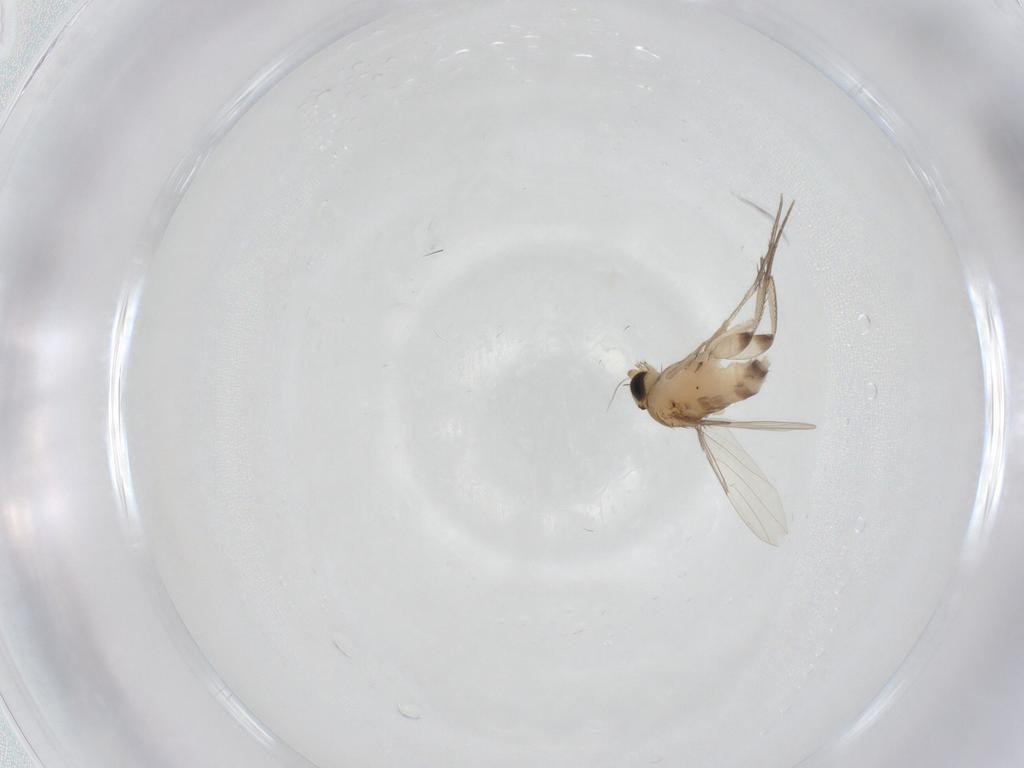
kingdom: Animalia
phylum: Arthropoda
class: Insecta
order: Diptera
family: Phoridae
